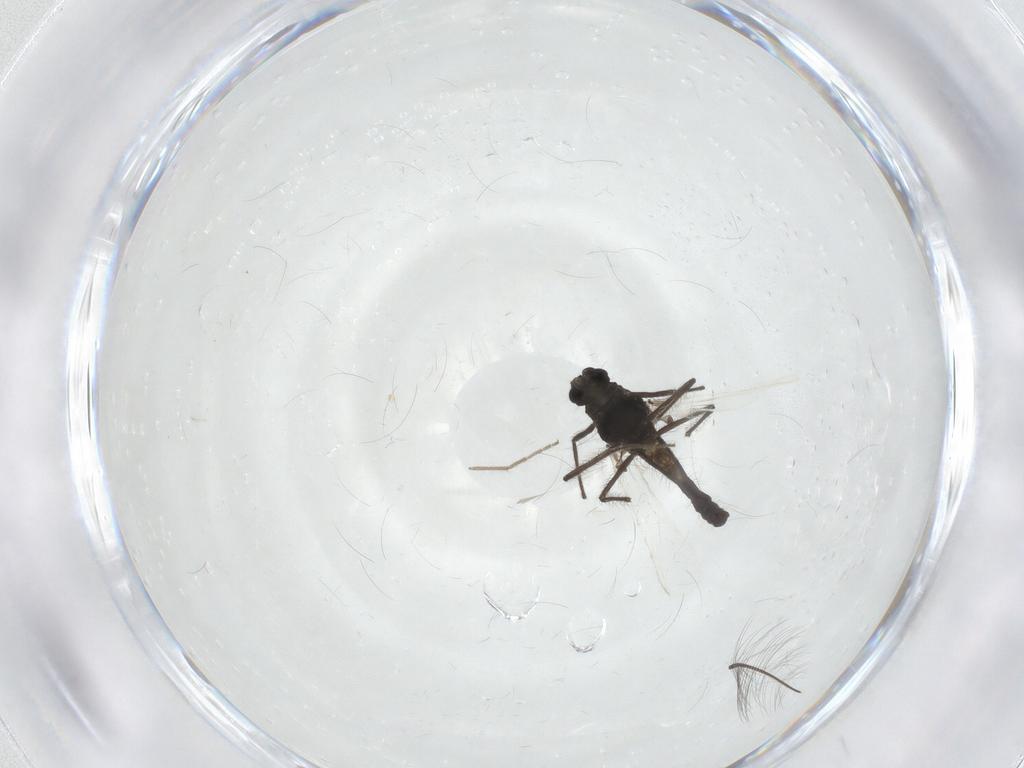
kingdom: Animalia
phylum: Arthropoda
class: Insecta
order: Diptera
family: Chironomidae
